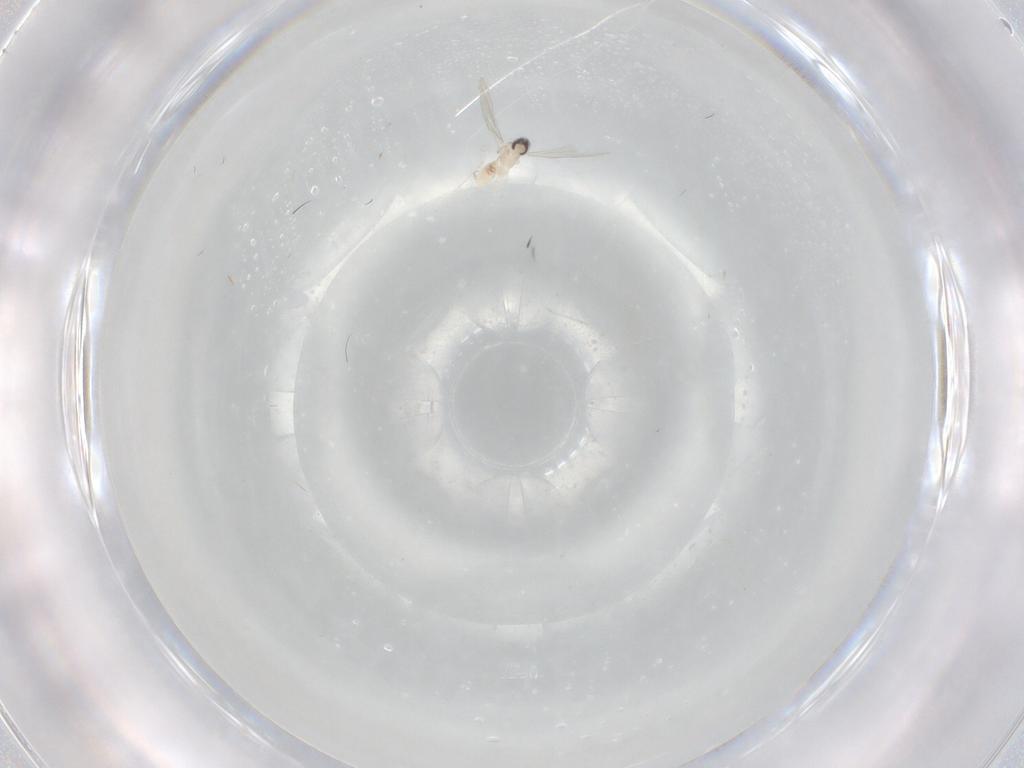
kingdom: Animalia
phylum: Arthropoda
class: Insecta
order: Diptera
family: Cecidomyiidae
